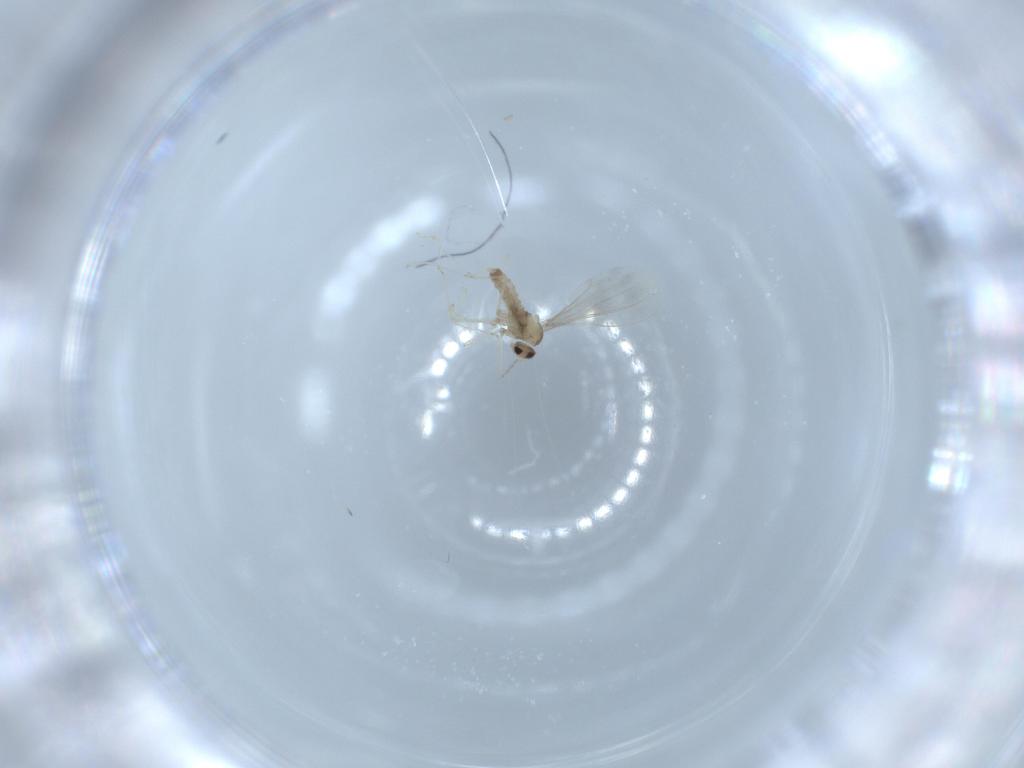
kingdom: Animalia
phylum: Arthropoda
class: Insecta
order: Diptera
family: Cecidomyiidae
